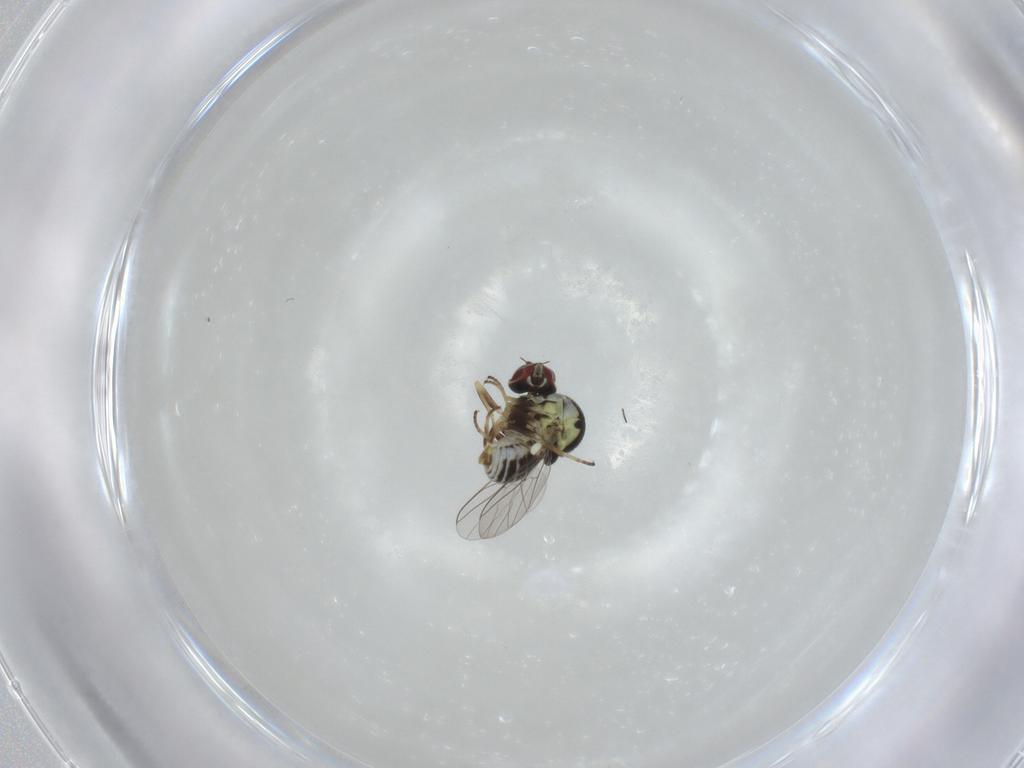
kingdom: Animalia
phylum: Arthropoda
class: Insecta
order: Diptera
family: Bombyliidae
